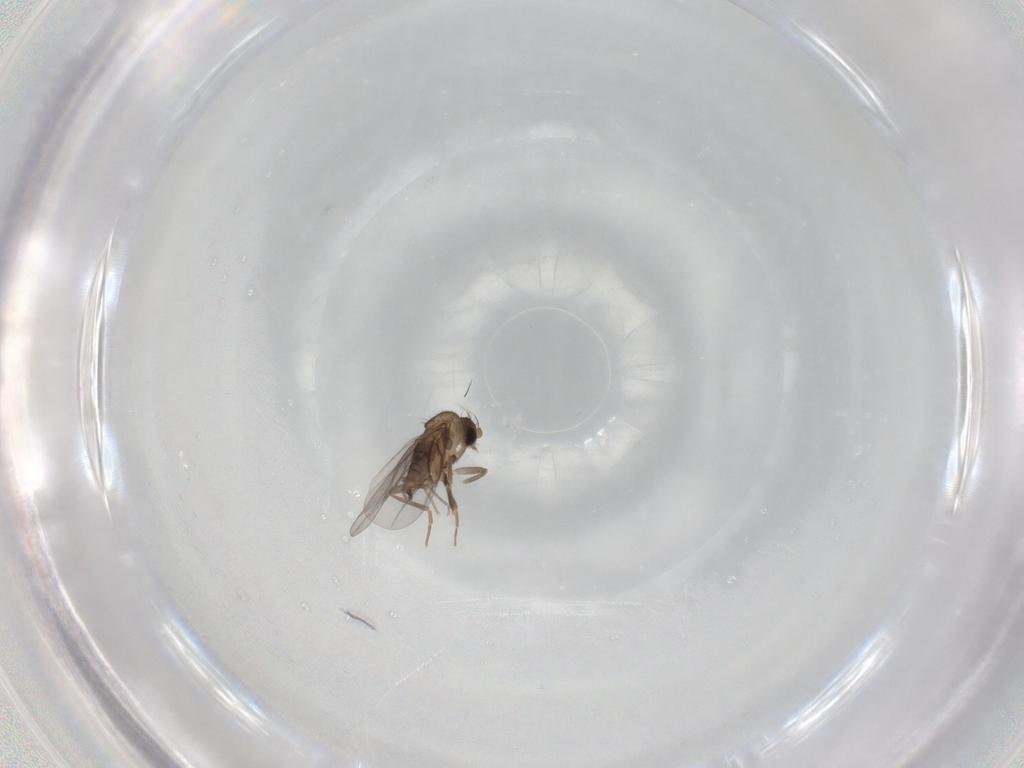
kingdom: Animalia
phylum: Arthropoda
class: Insecta
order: Diptera
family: Cecidomyiidae
